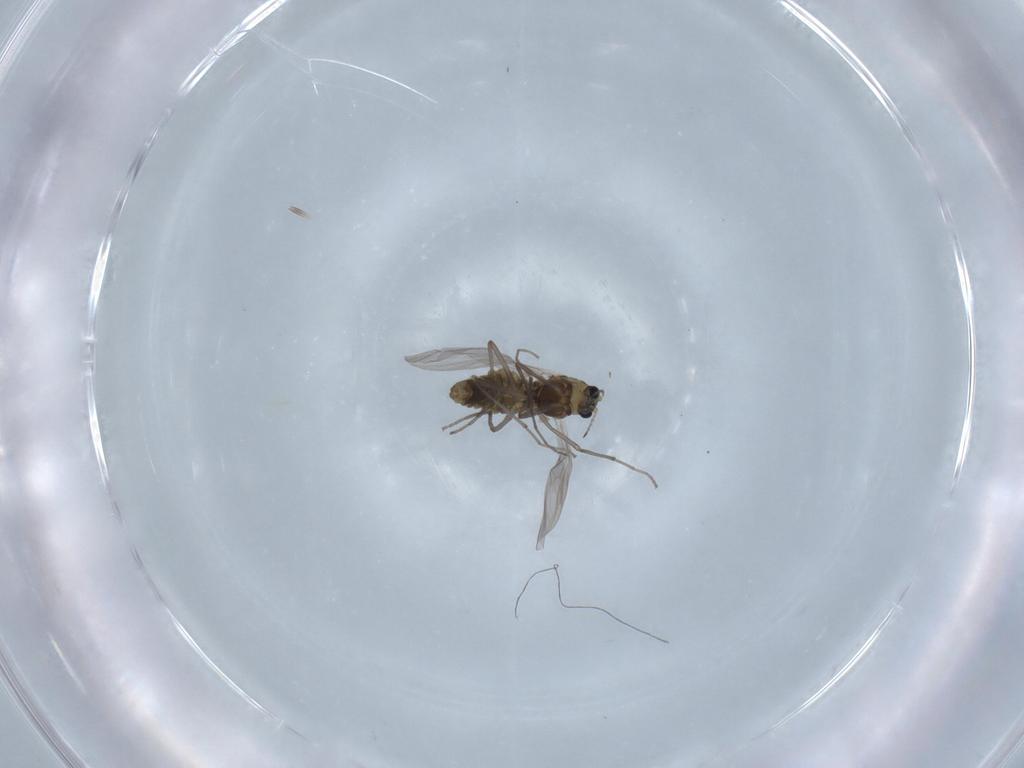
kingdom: Animalia
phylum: Arthropoda
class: Insecta
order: Diptera
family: Chironomidae
